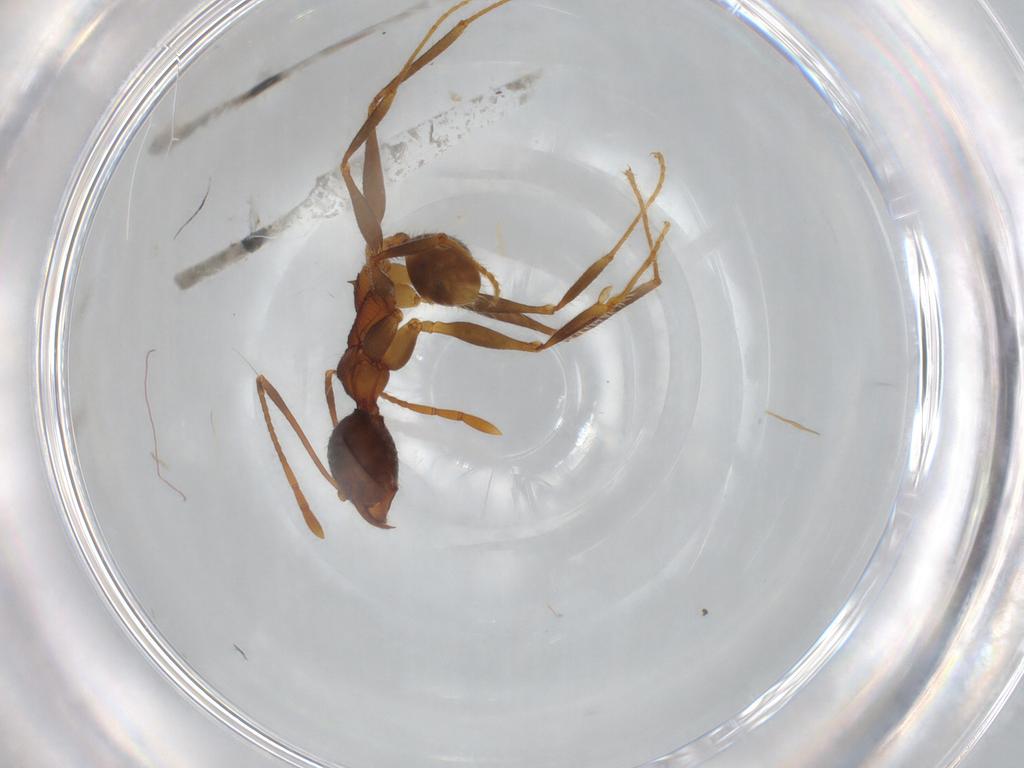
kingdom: Animalia
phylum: Arthropoda
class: Insecta
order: Hymenoptera
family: Formicidae
